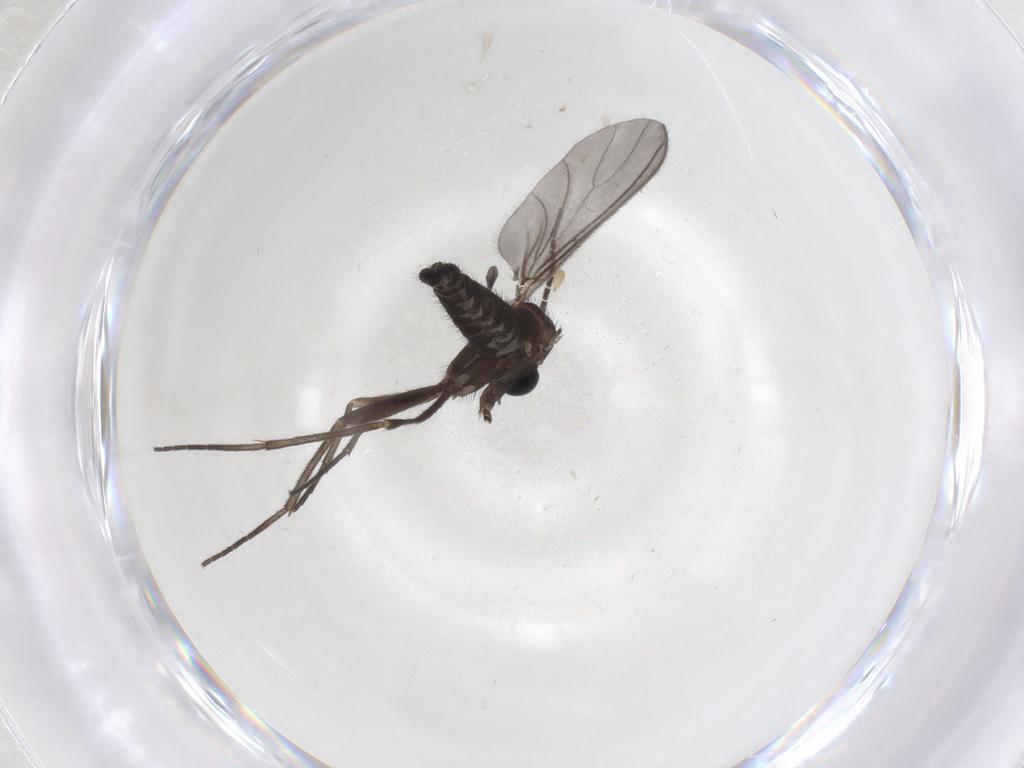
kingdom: Animalia
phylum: Arthropoda
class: Insecta
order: Diptera
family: Sciaridae
